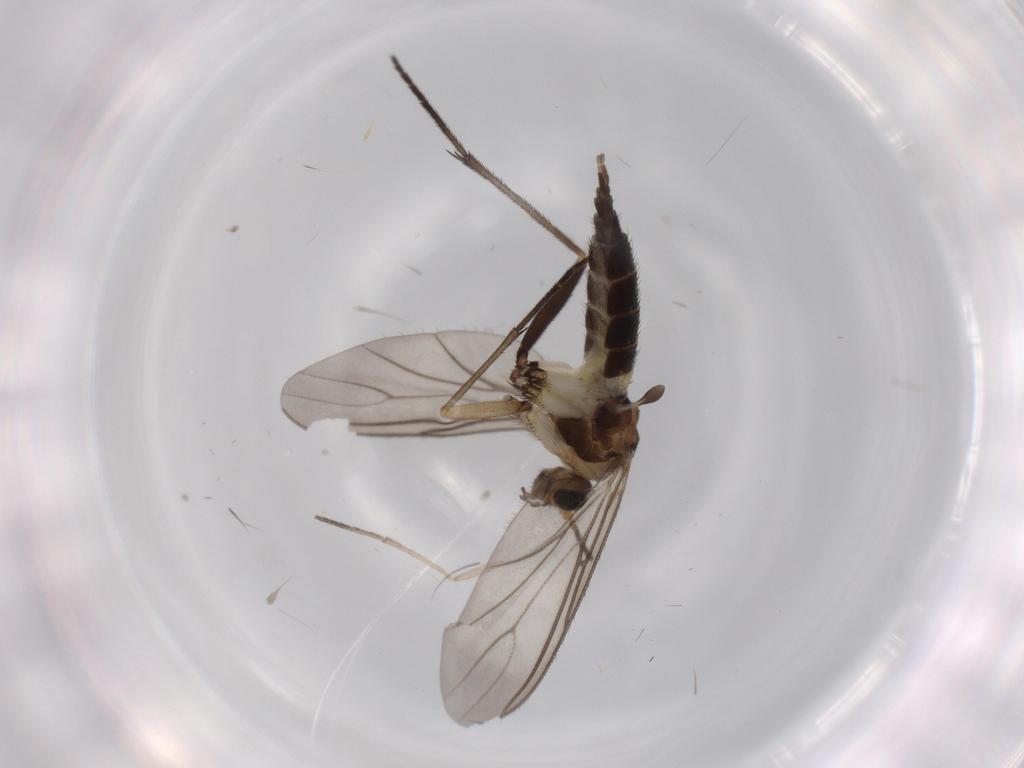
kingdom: Animalia
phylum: Arthropoda
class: Insecta
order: Diptera
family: Sciaridae
